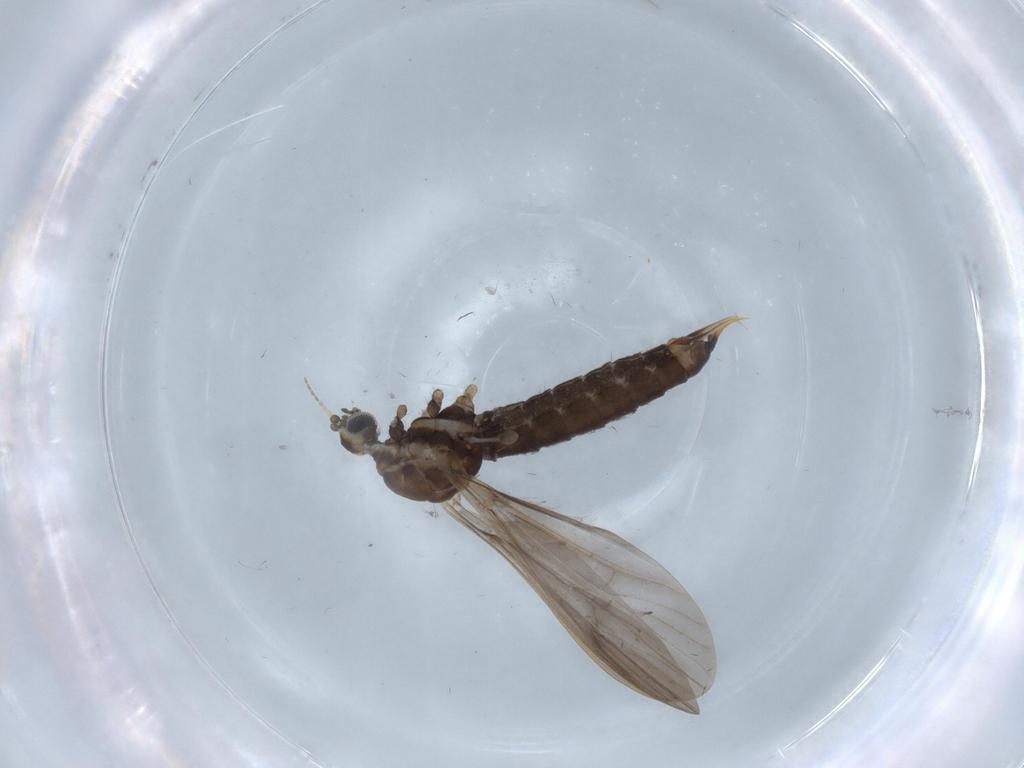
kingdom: Animalia
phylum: Arthropoda
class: Insecta
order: Diptera
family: Limoniidae
